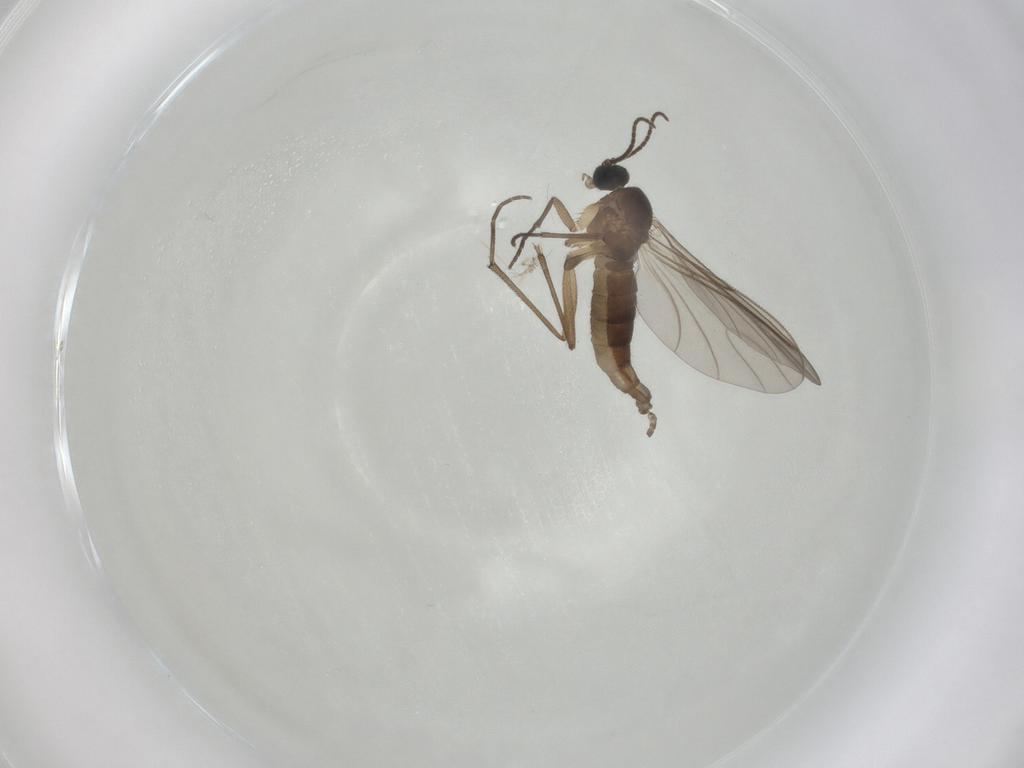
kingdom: Animalia
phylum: Arthropoda
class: Insecta
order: Diptera
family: Sciaridae
